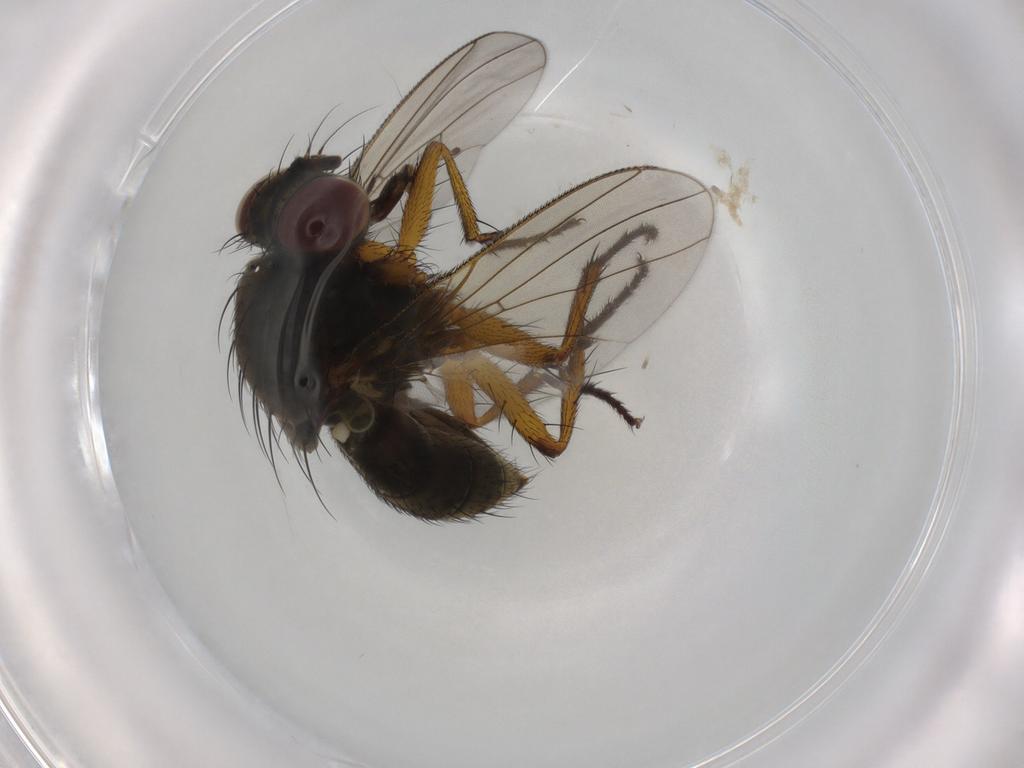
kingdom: Animalia
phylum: Arthropoda
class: Insecta
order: Diptera
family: Muscidae
